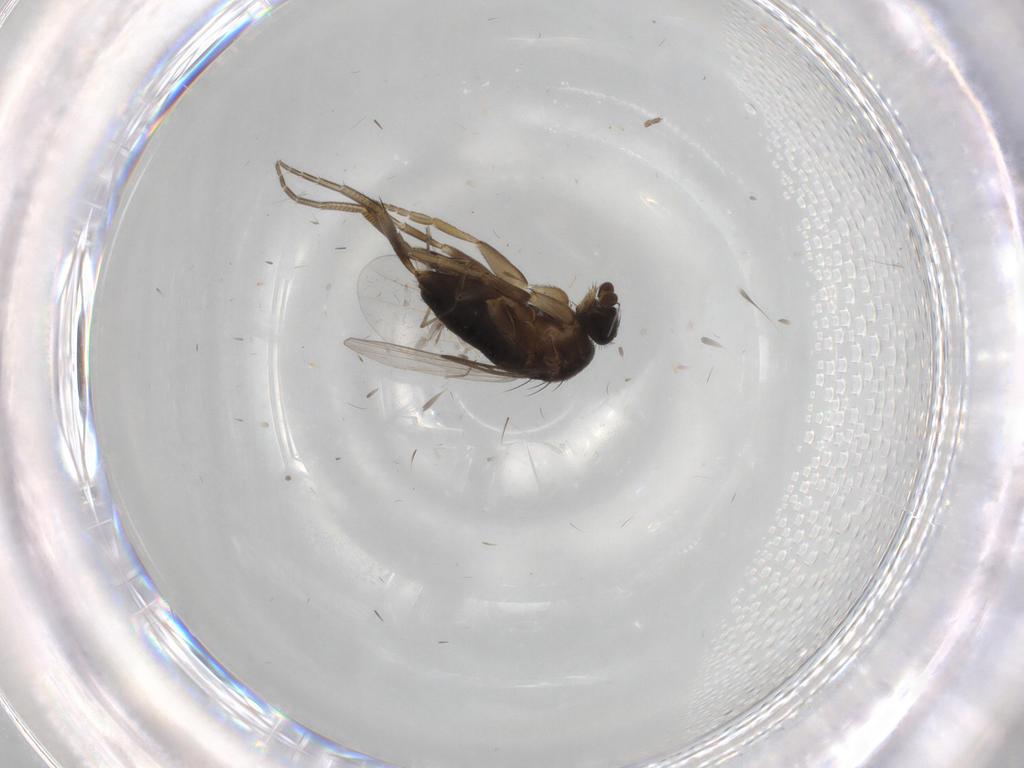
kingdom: Animalia
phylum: Arthropoda
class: Insecta
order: Diptera
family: Phoridae
